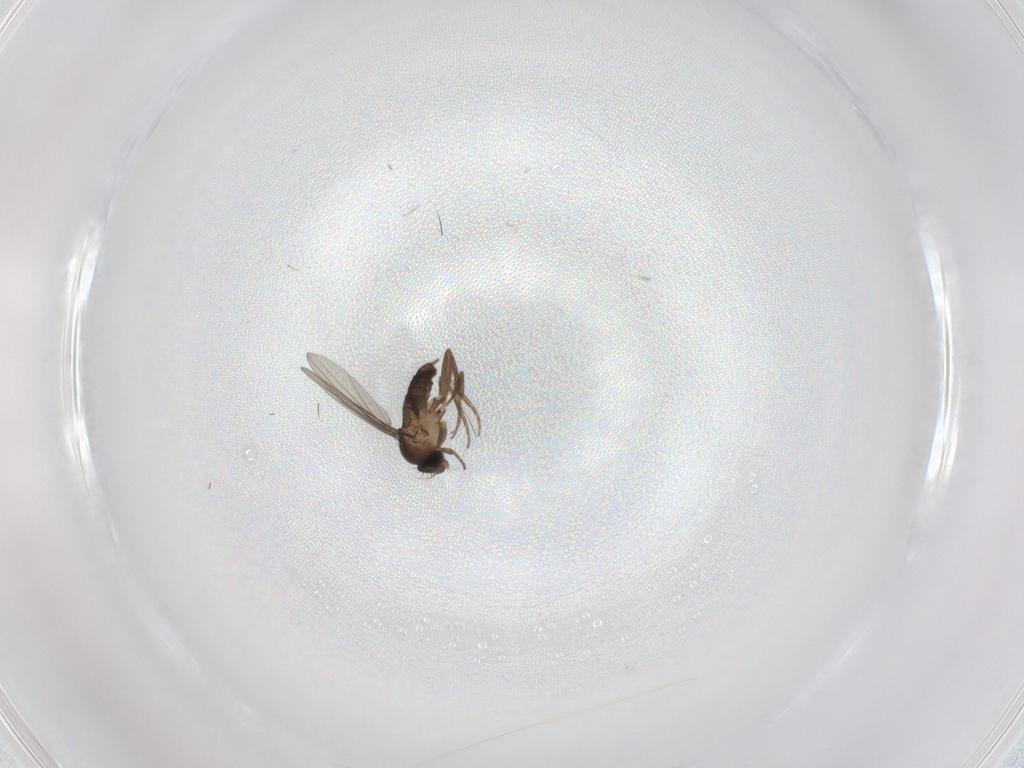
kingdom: Animalia
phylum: Arthropoda
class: Insecta
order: Diptera
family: Phoridae
